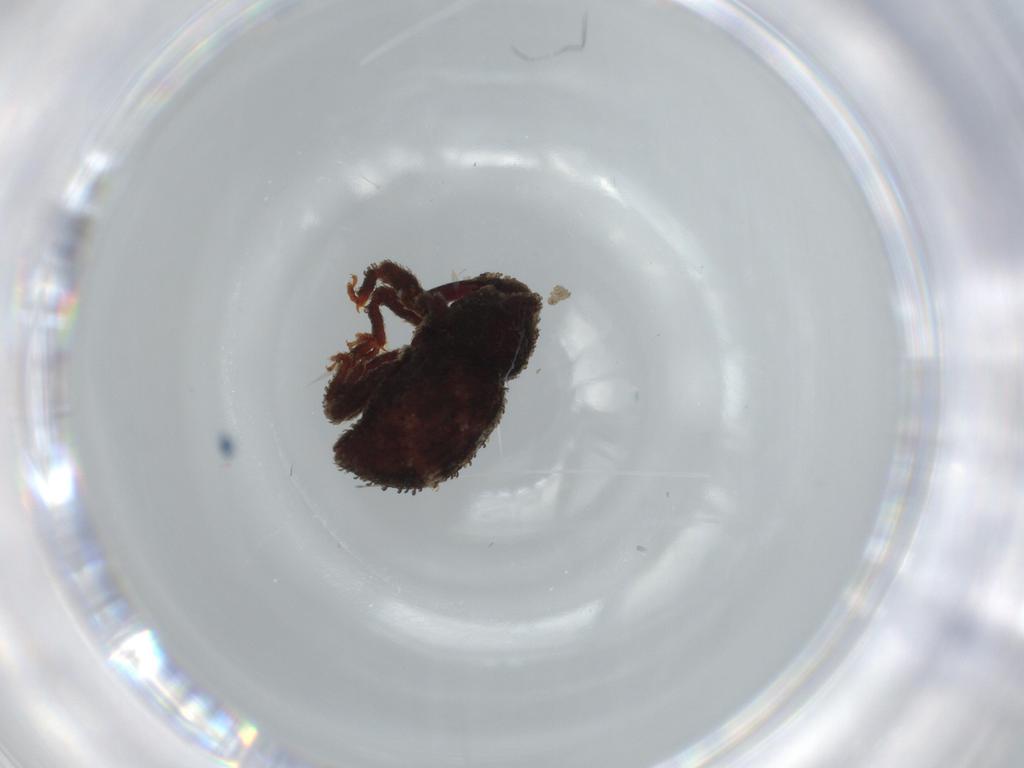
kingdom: Animalia
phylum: Arthropoda
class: Insecta
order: Coleoptera
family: Curculionidae
